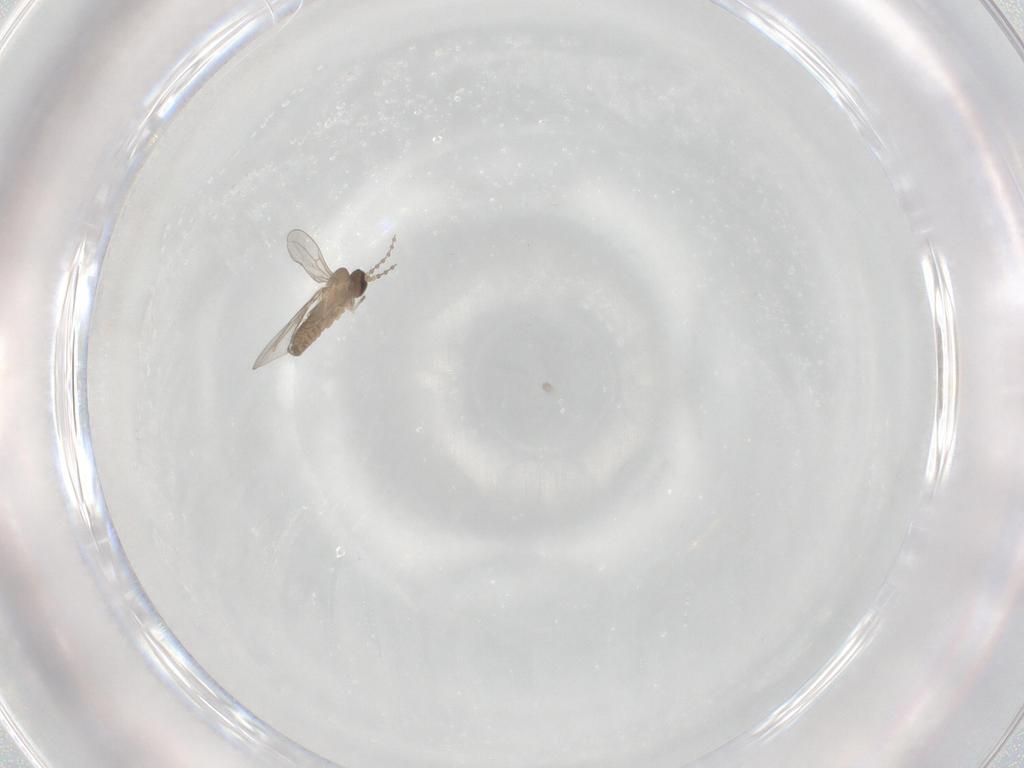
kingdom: Animalia
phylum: Arthropoda
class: Insecta
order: Diptera
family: Cecidomyiidae
